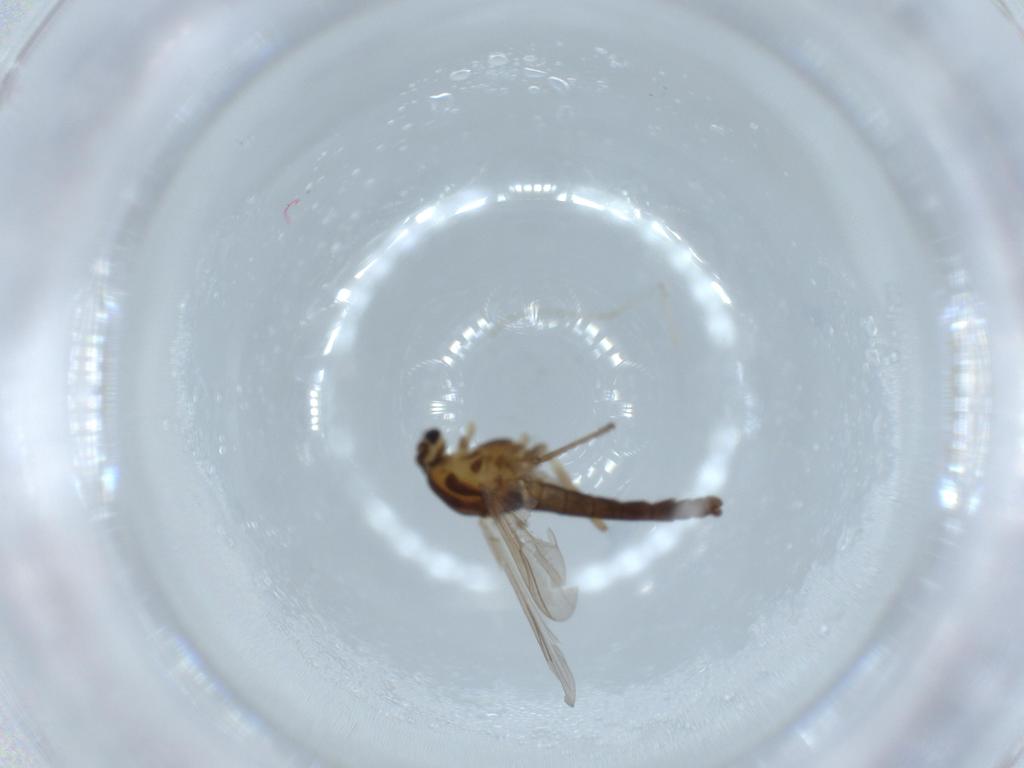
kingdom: Animalia
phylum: Arthropoda
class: Insecta
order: Diptera
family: Chironomidae
